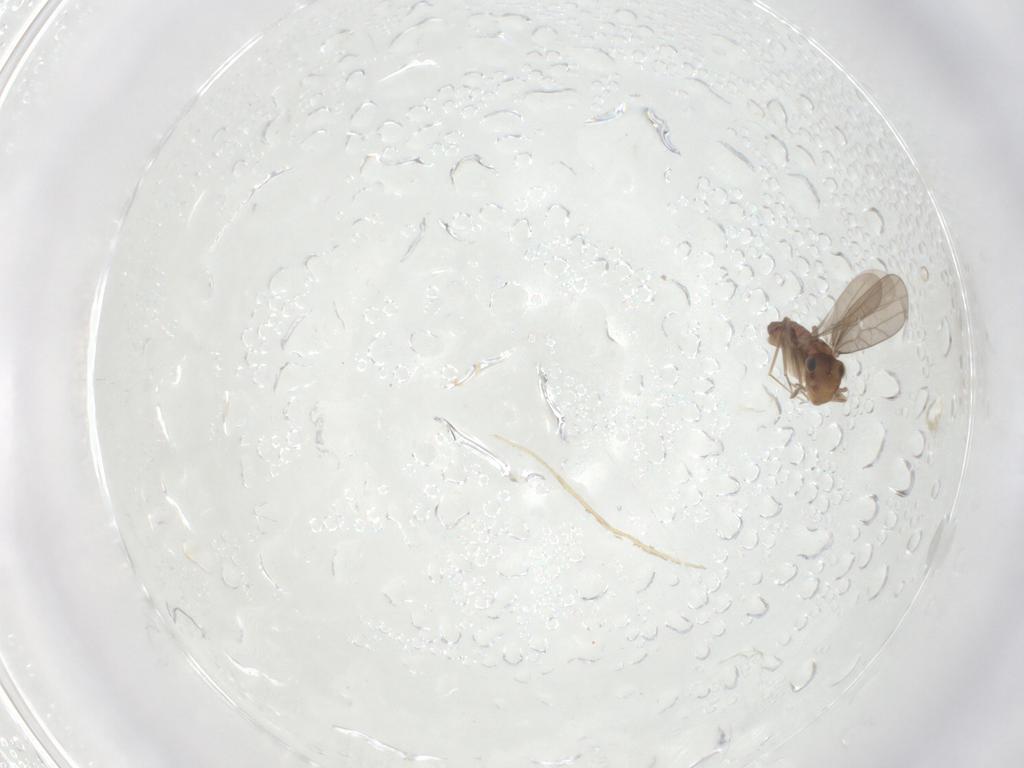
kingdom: Animalia
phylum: Arthropoda
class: Insecta
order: Psocodea
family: Lepidopsocidae
